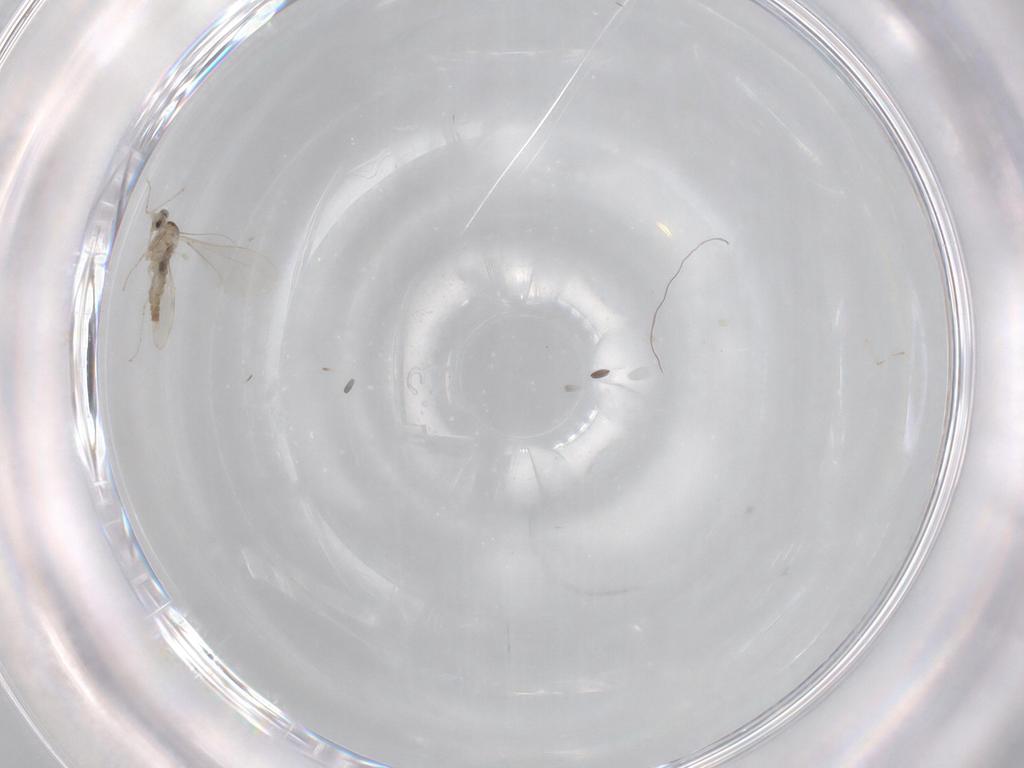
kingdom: Animalia
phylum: Arthropoda
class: Insecta
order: Diptera
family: Cecidomyiidae
